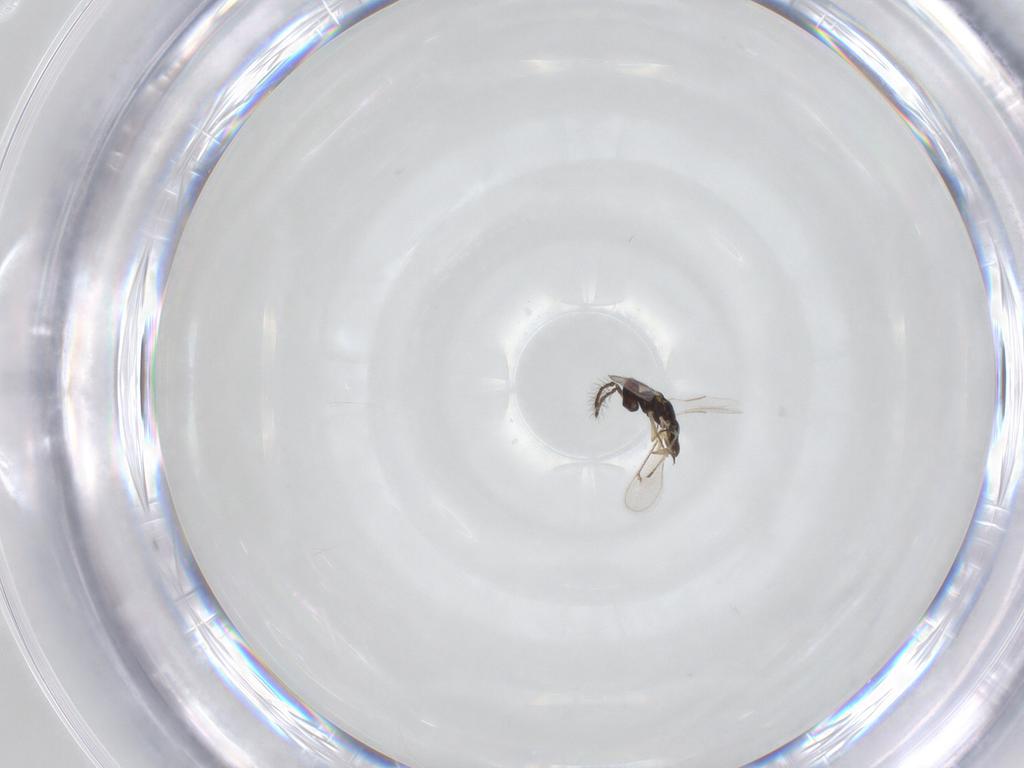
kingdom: Animalia
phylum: Arthropoda
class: Insecta
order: Hymenoptera
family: Eulophidae
